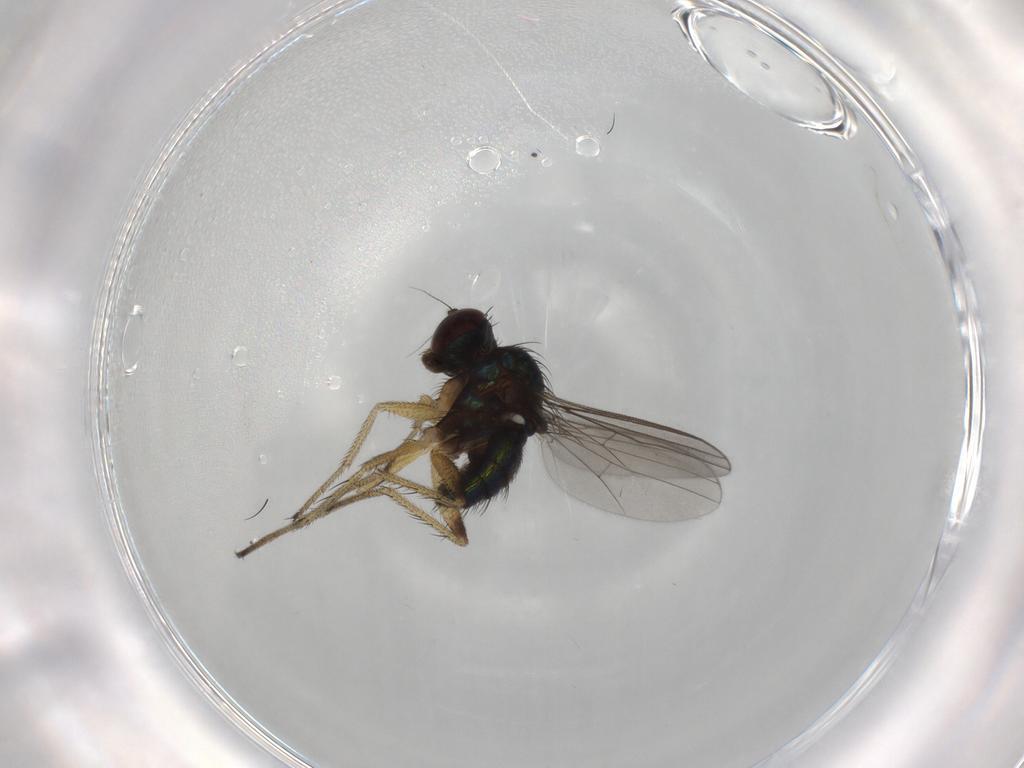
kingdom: Animalia
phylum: Arthropoda
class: Insecta
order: Diptera
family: Dolichopodidae
